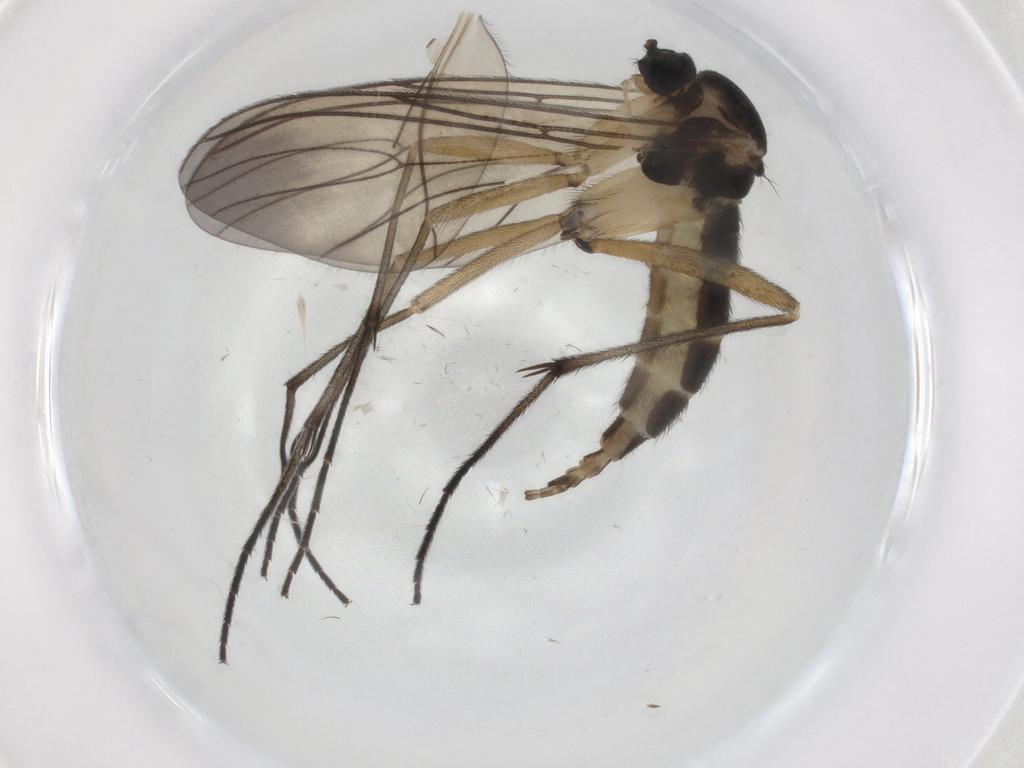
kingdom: Animalia
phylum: Arthropoda
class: Insecta
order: Diptera
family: Sciaridae
